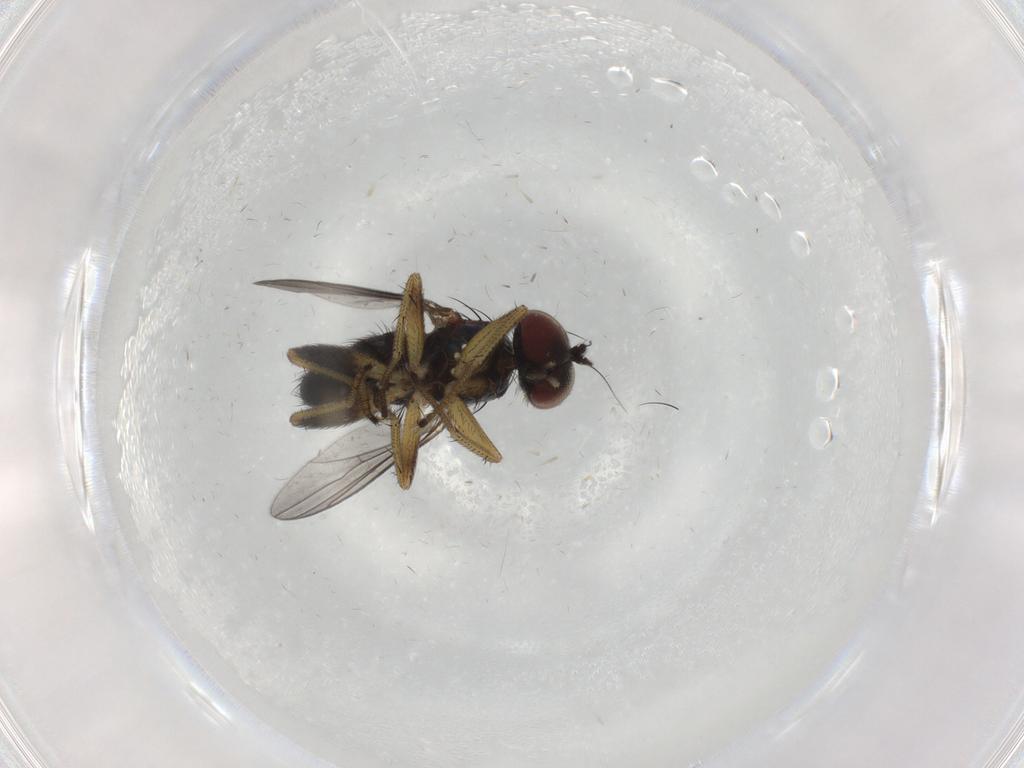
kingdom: Animalia
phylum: Arthropoda
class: Insecta
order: Diptera
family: Dolichopodidae
